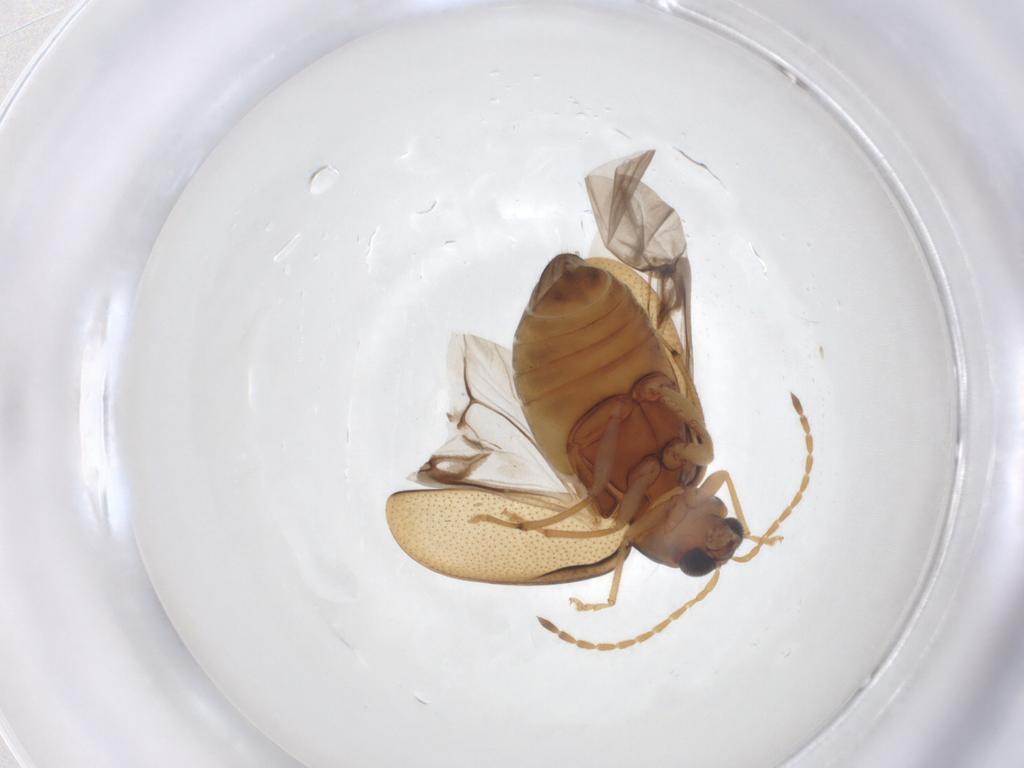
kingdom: Animalia
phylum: Arthropoda
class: Insecta
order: Coleoptera
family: Chrysomelidae
